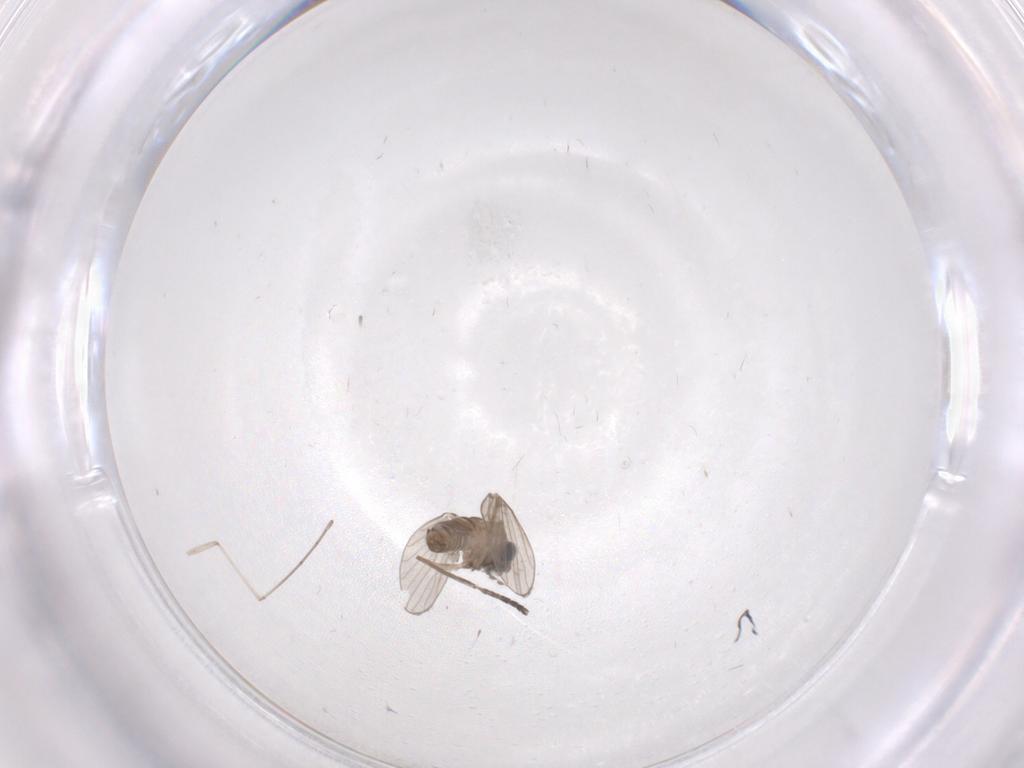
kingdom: Animalia
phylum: Arthropoda
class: Insecta
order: Diptera
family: Psychodidae
